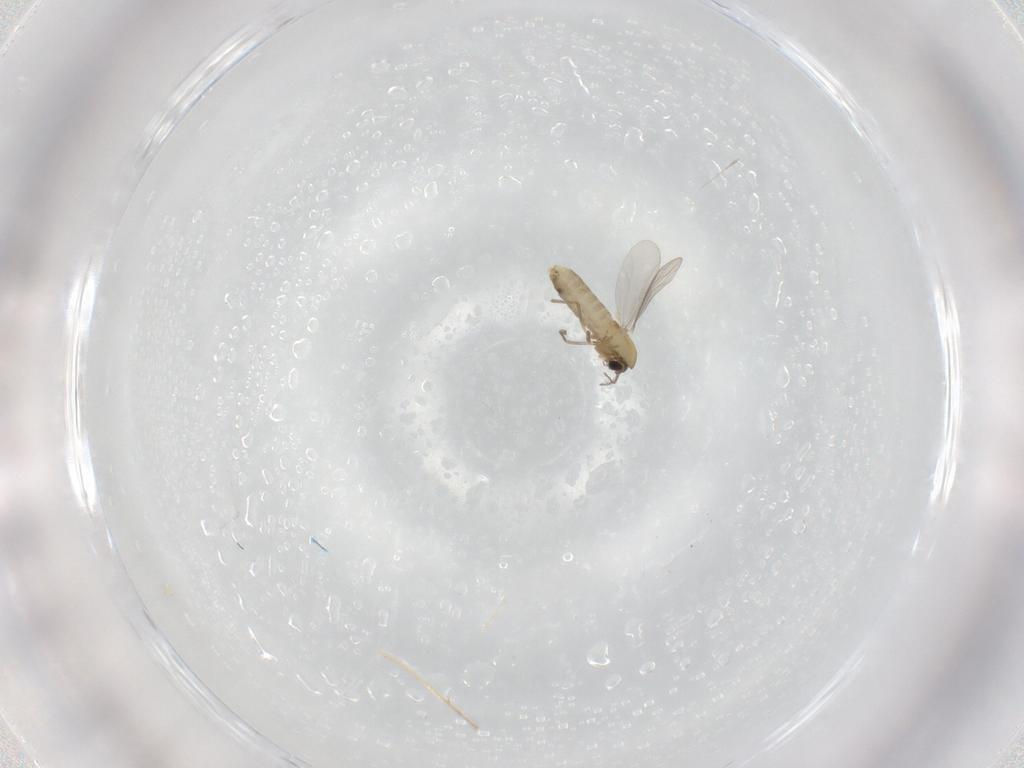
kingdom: Animalia
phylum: Arthropoda
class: Insecta
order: Diptera
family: Chironomidae
